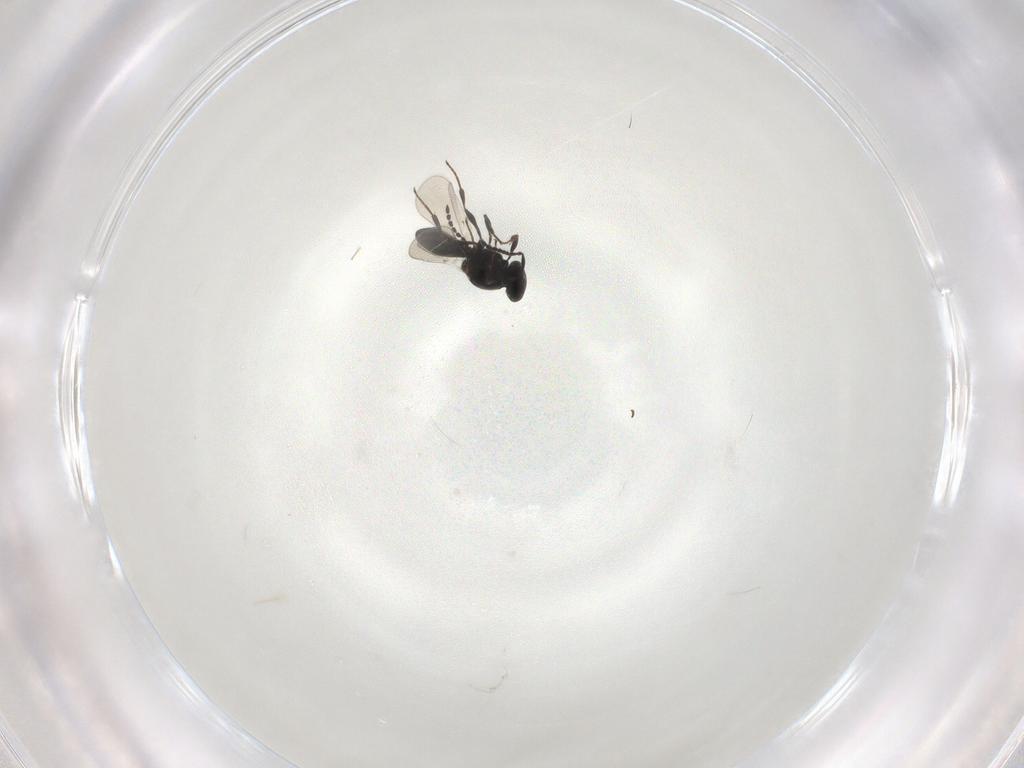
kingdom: Animalia
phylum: Arthropoda
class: Insecta
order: Hymenoptera
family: Platygastridae
